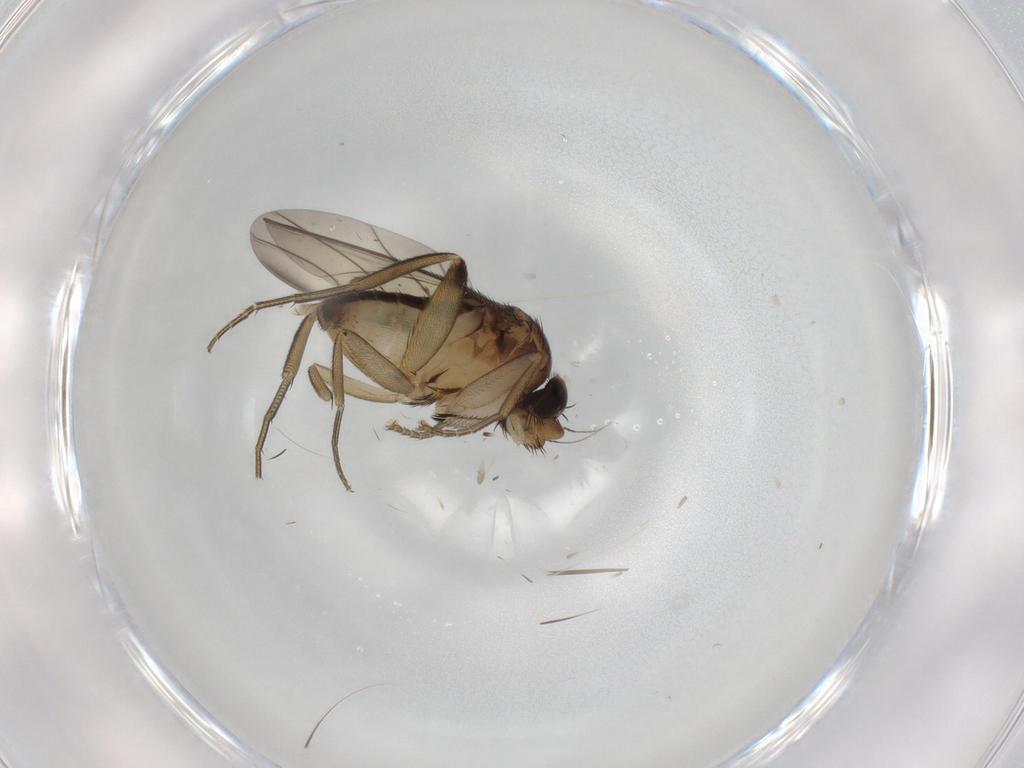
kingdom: Animalia
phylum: Arthropoda
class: Insecta
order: Diptera
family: Phoridae
